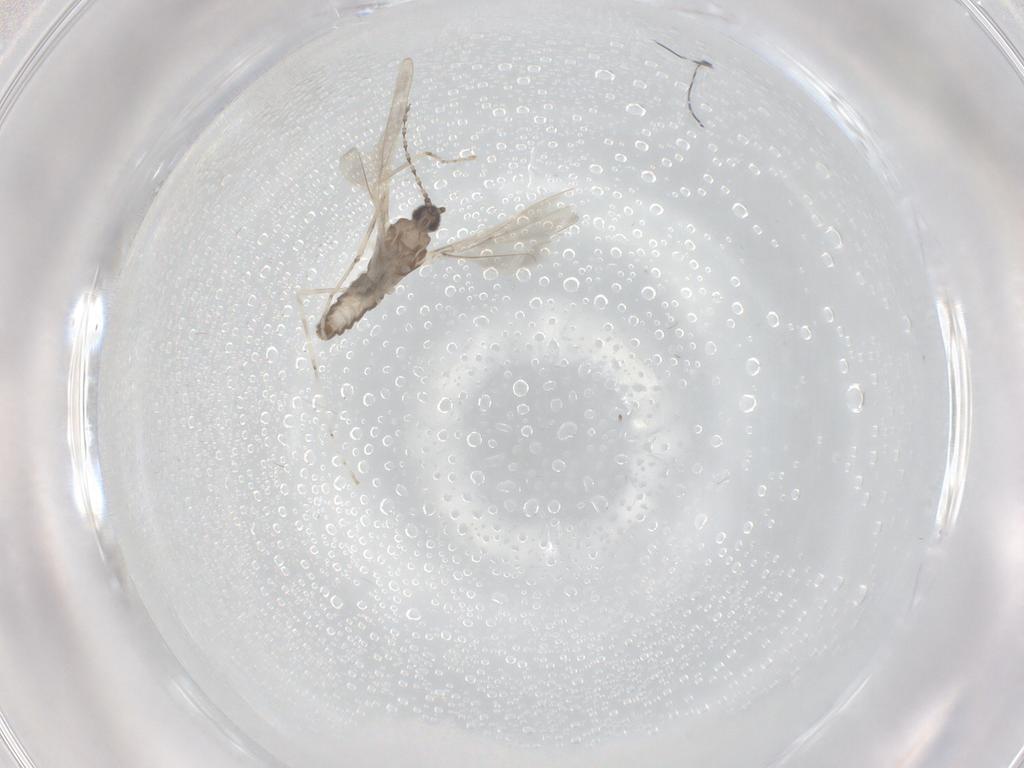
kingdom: Animalia
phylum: Arthropoda
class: Insecta
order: Diptera
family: Cecidomyiidae
